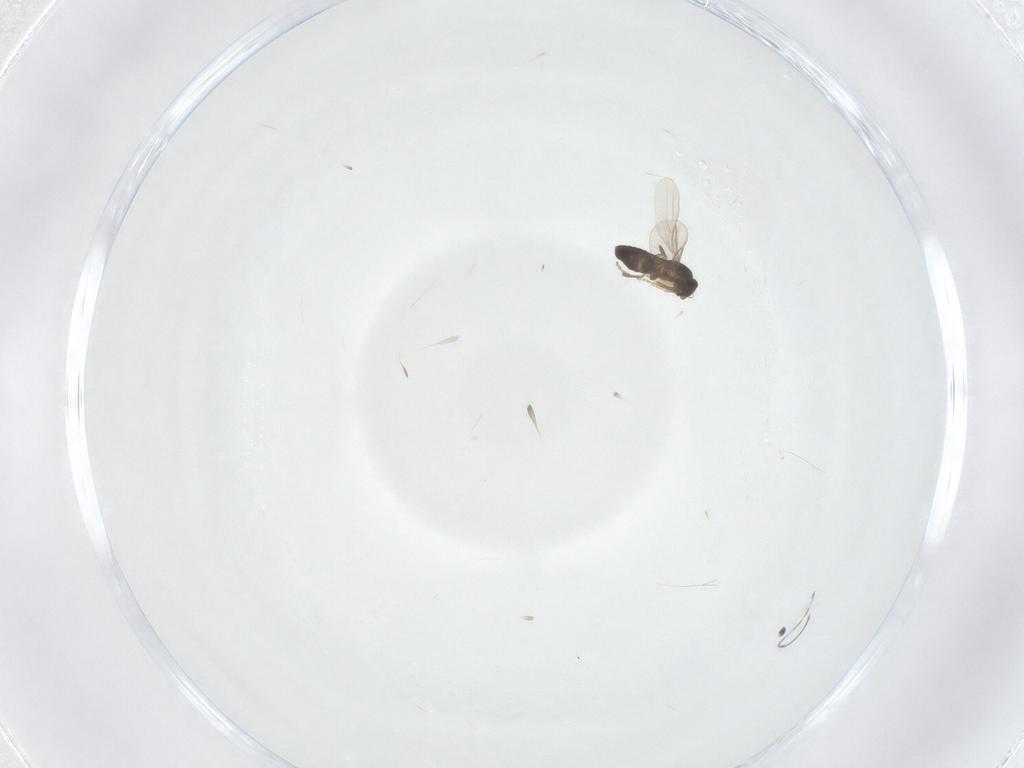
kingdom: Animalia
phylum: Arthropoda
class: Insecta
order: Diptera
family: Phoridae
